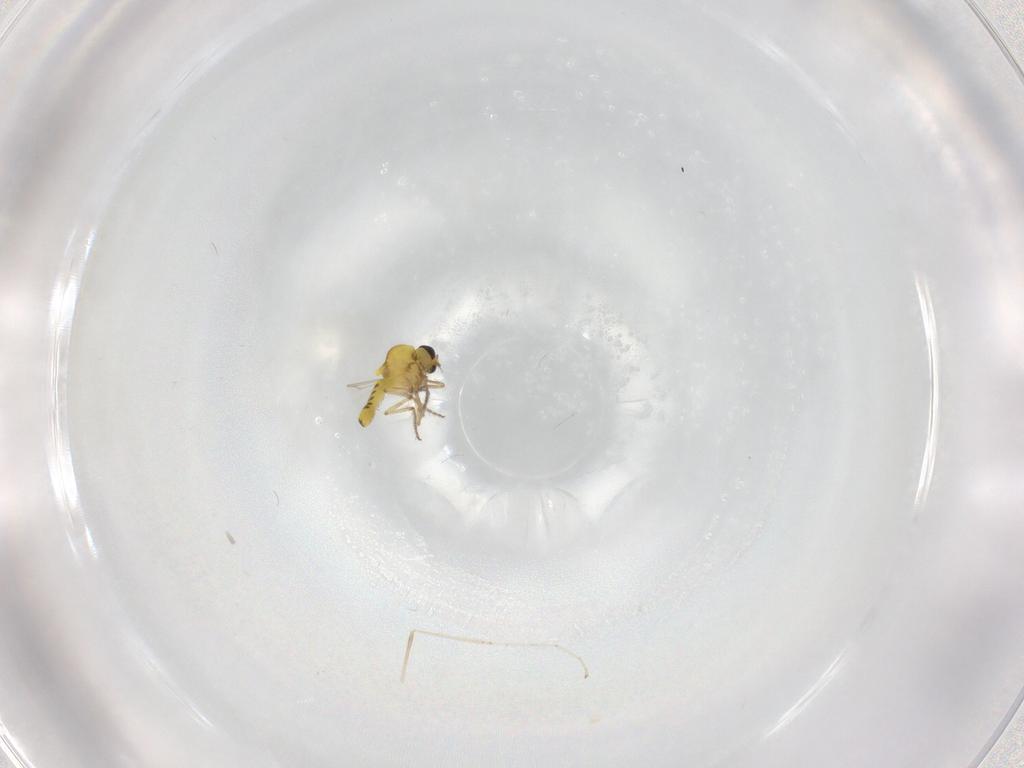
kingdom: Animalia
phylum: Arthropoda
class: Insecta
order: Diptera
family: Ceratopogonidae
